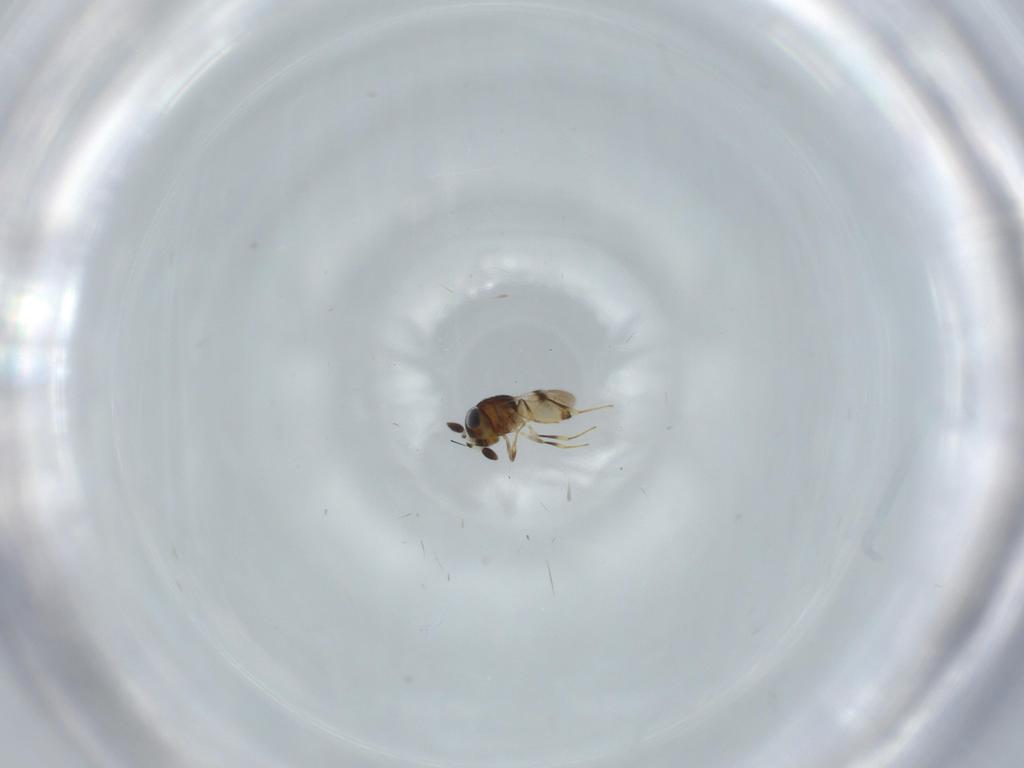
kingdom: Animalia
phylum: Arthropoda
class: Arachnida
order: Araneae
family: Pholcidae
